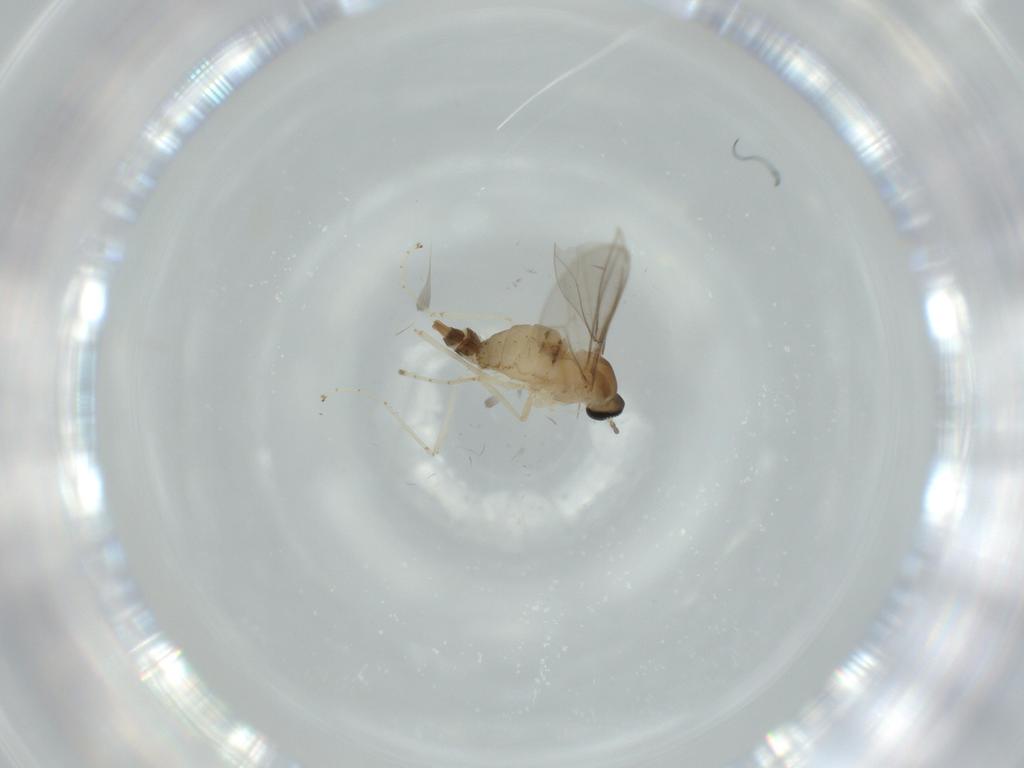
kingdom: Animalia
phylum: Arthropoda
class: Insecta
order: Diptera
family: Cecidomyiidae
